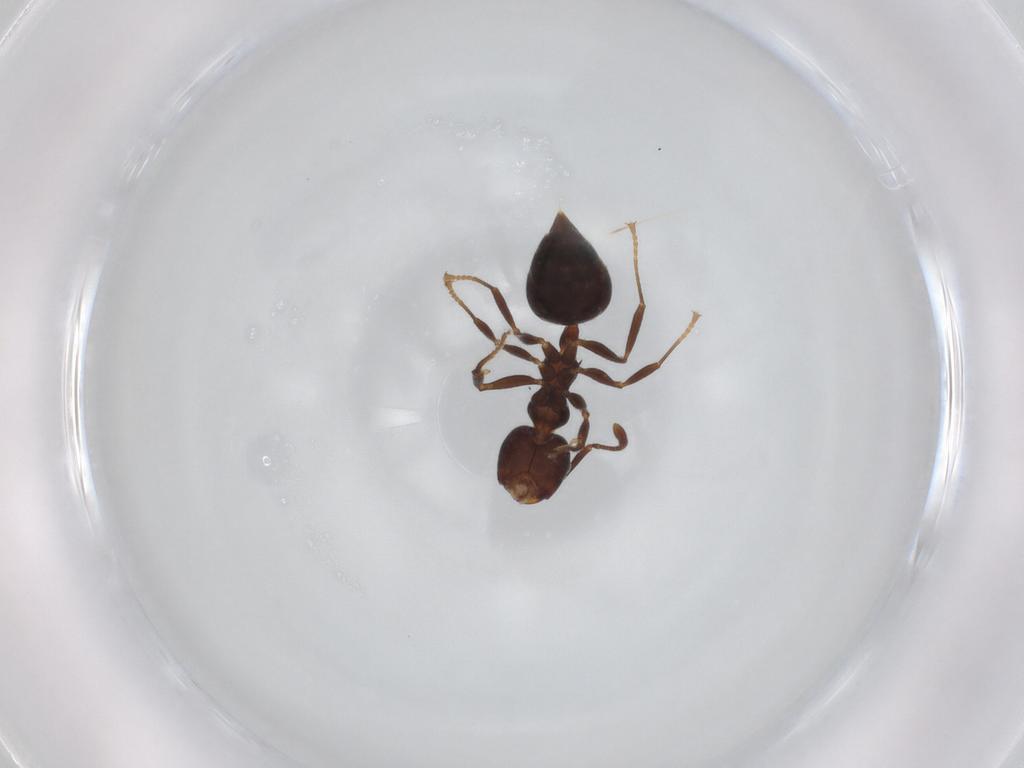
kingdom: Animalia
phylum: Arthropoda
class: Insecta
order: Hymenoptera
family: Formicidae
